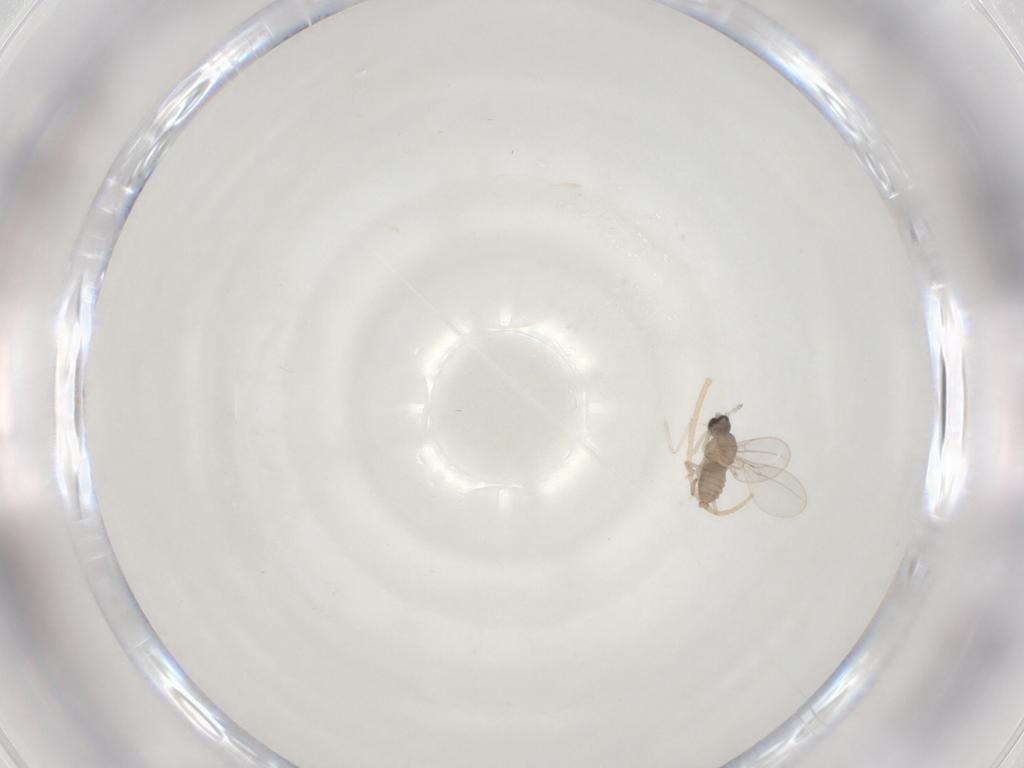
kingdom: Animalia
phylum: Arthropoda
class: Insecta
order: Diptera
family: Cecidomyiidae
